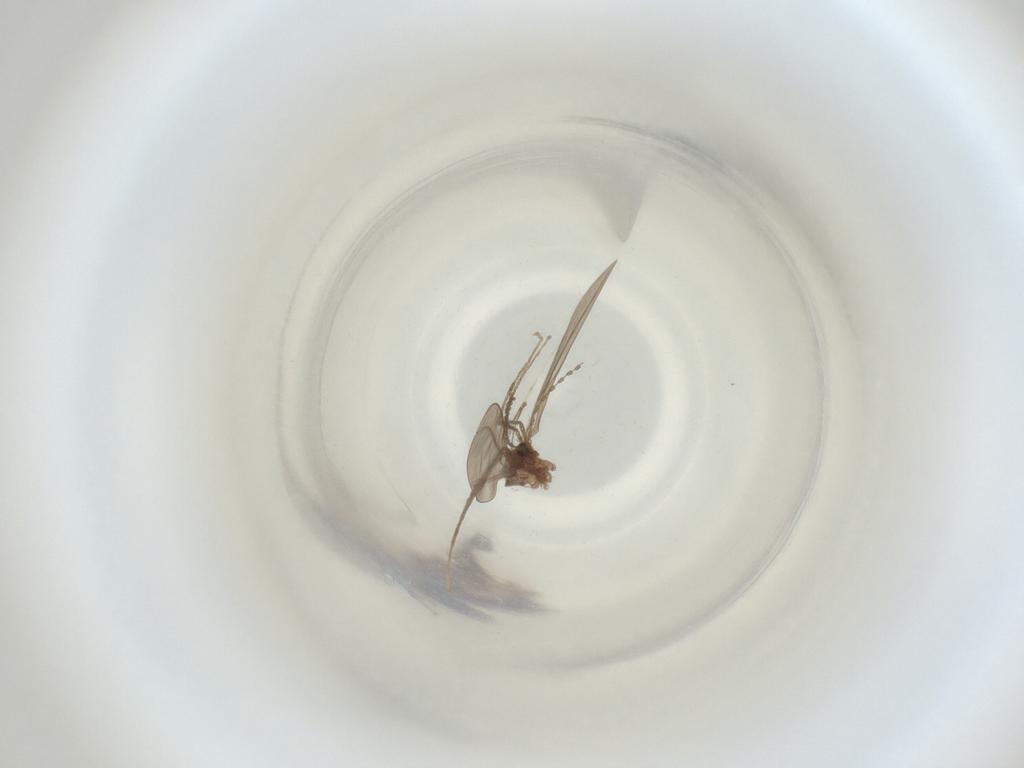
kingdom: Animalia
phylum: Arthropoda
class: Insecta
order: Diptera
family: Cecidomyiidae
